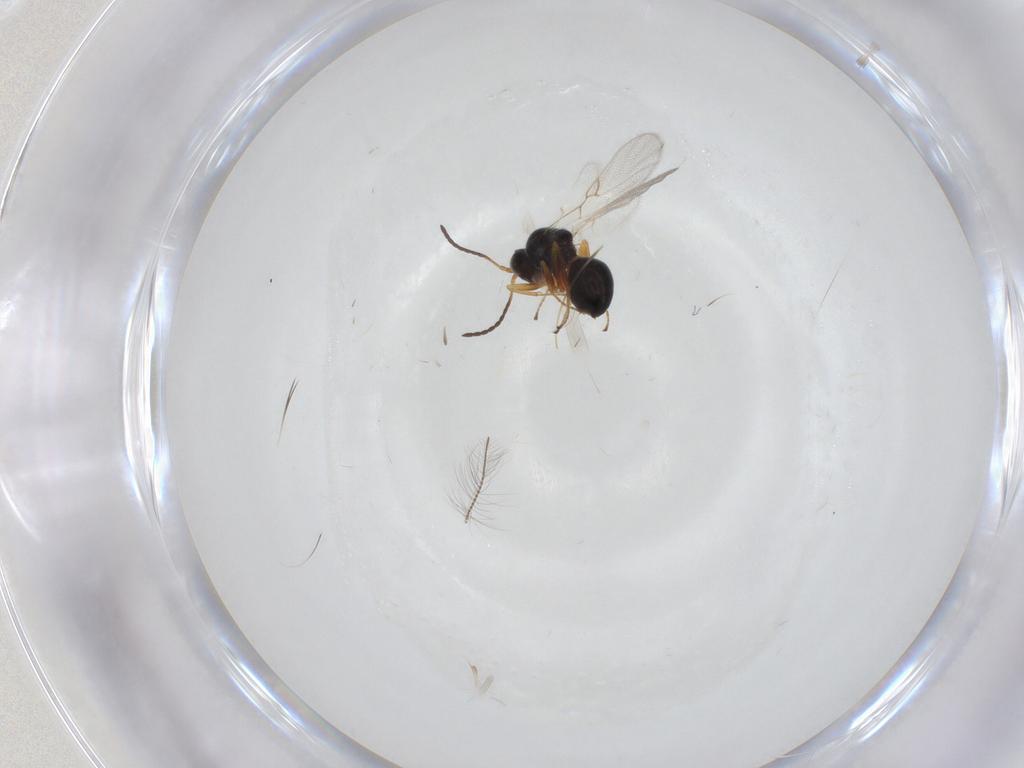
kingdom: Animalia
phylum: Arthropoda
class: Insecta
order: Hymenoptera
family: Figitidae
